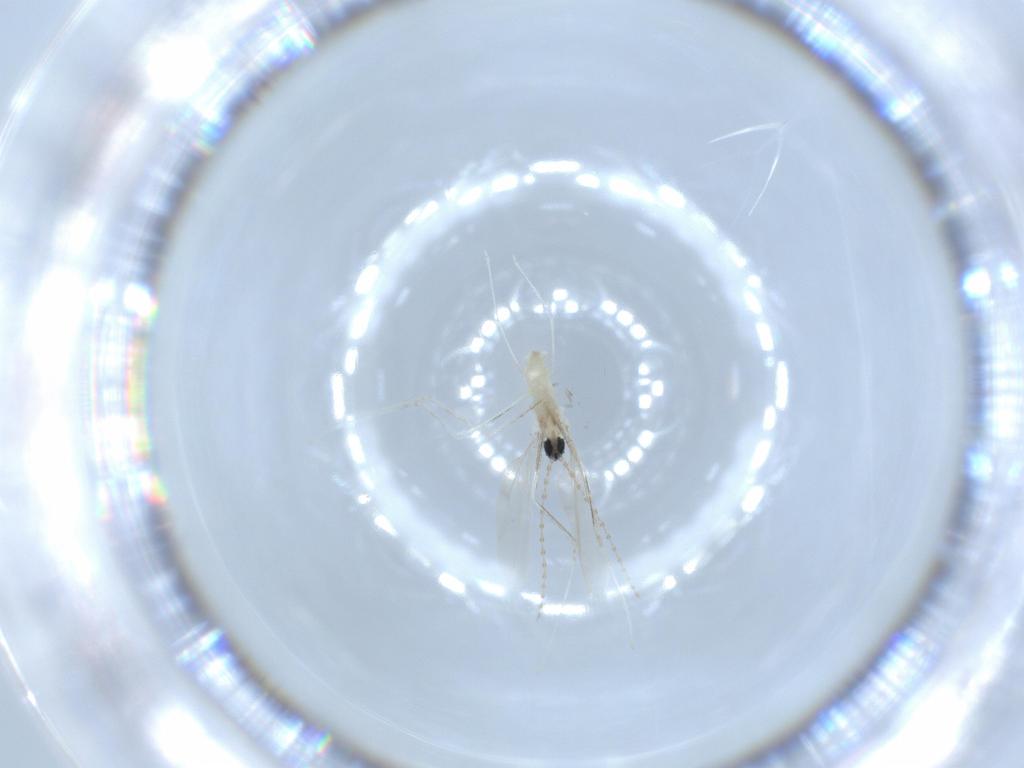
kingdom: Animalia
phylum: Arthropoda
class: Insecta
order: Diptera
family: Cecidomyiidae
